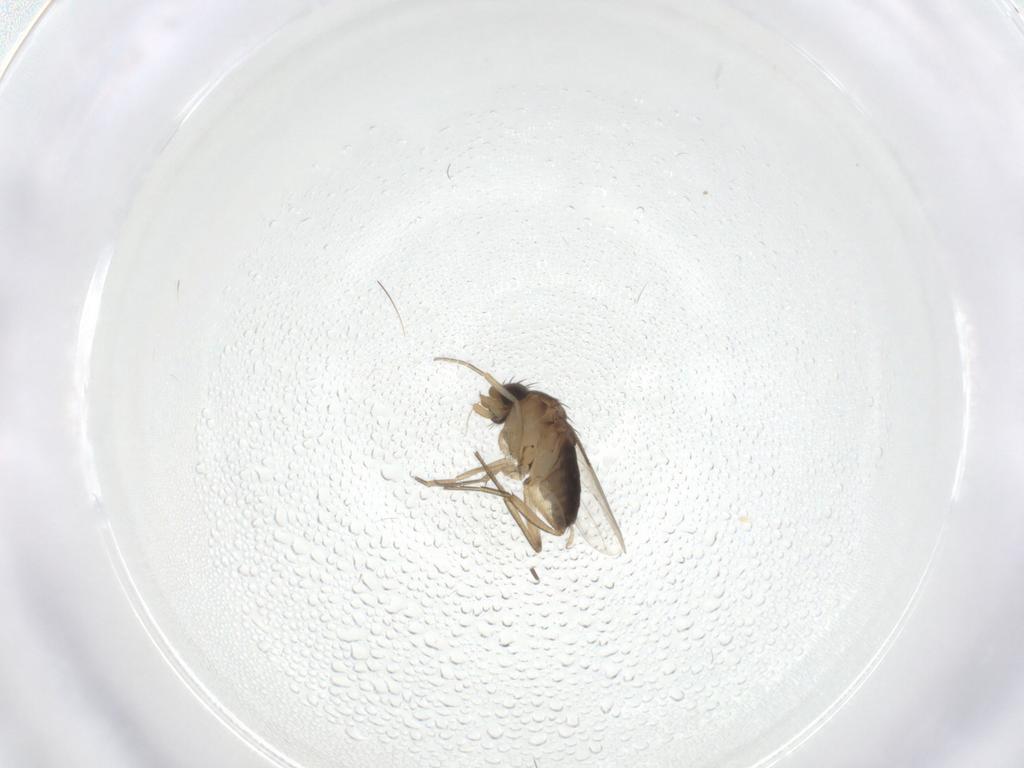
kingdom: Animalia
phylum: Arthropoda
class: Insecta
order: Diptera
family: Phoridae
